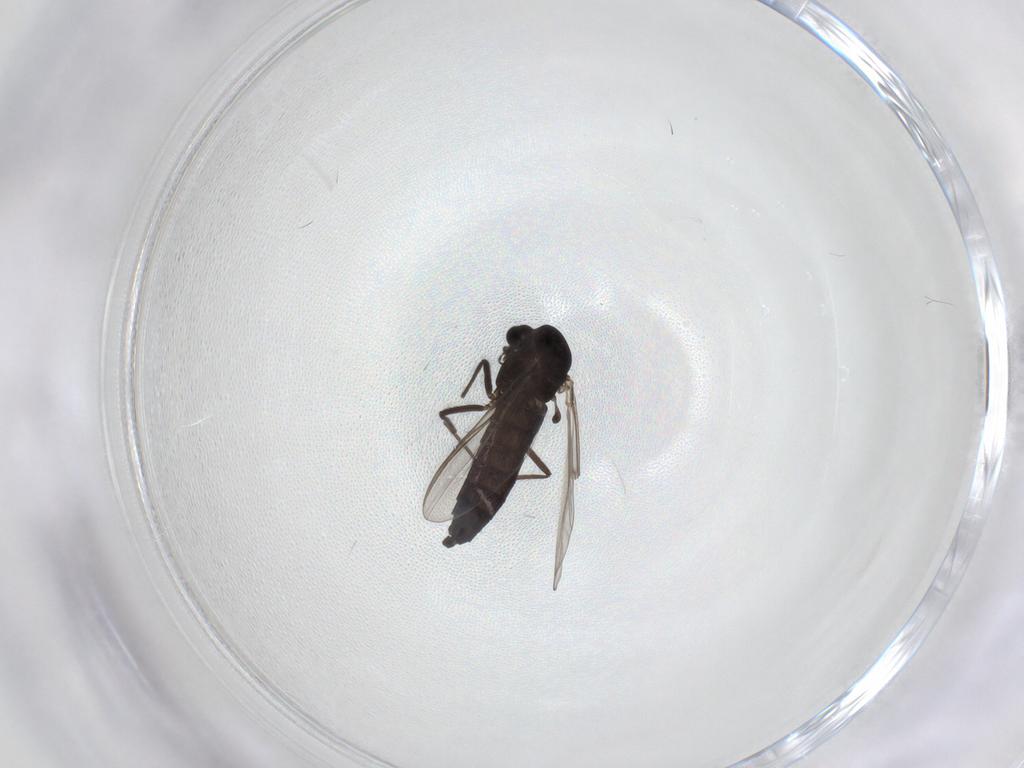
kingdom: Animalia
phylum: Arthropoda
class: Insecta
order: Diptera
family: Chironomidae
